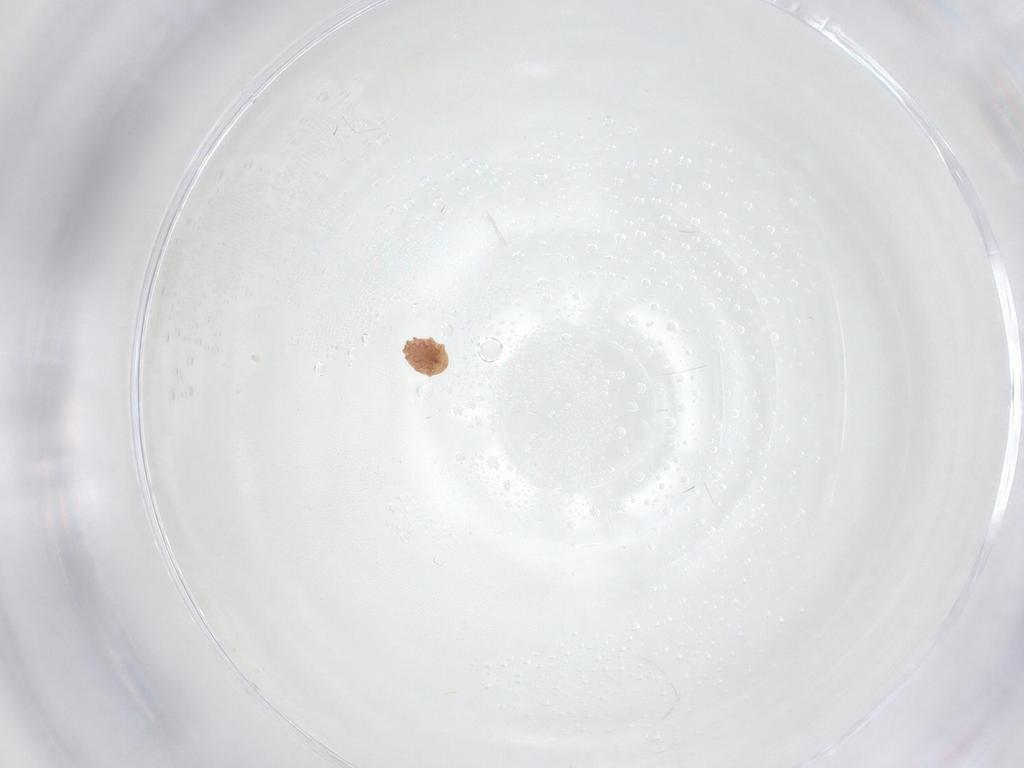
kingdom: Animalia
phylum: Arthropoda
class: Arachnida
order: Mesostigmata
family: Trematuridae
